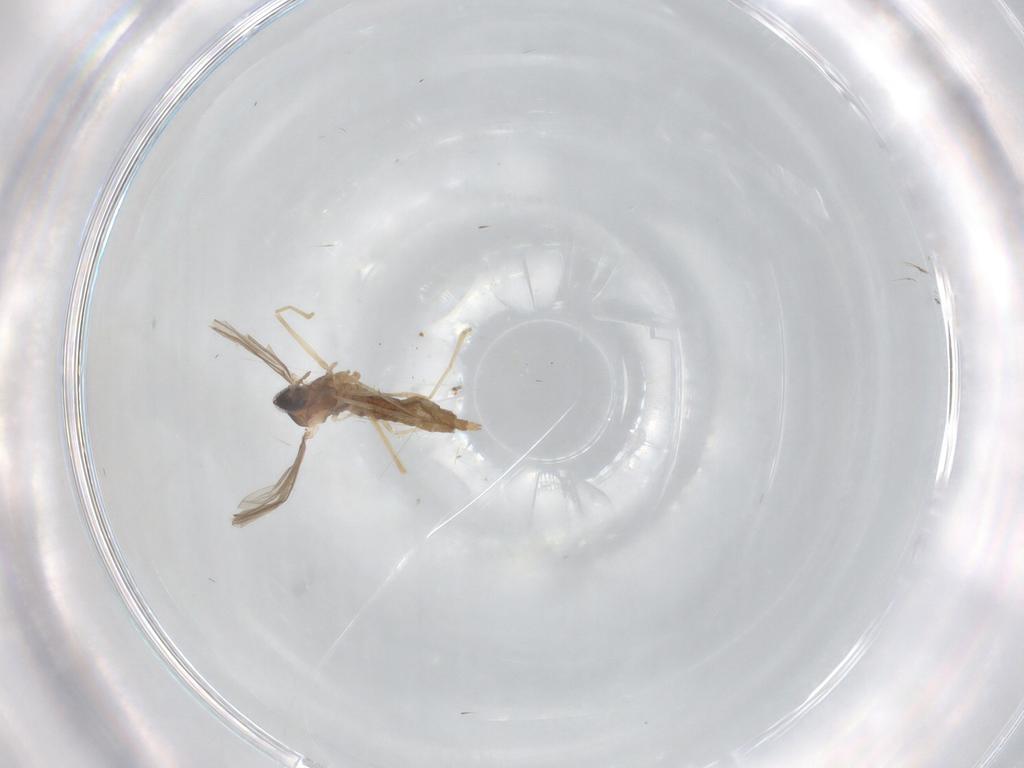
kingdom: Animalia
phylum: Arthropoda
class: Insecta
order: Diptera
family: Cecidomyiidae
